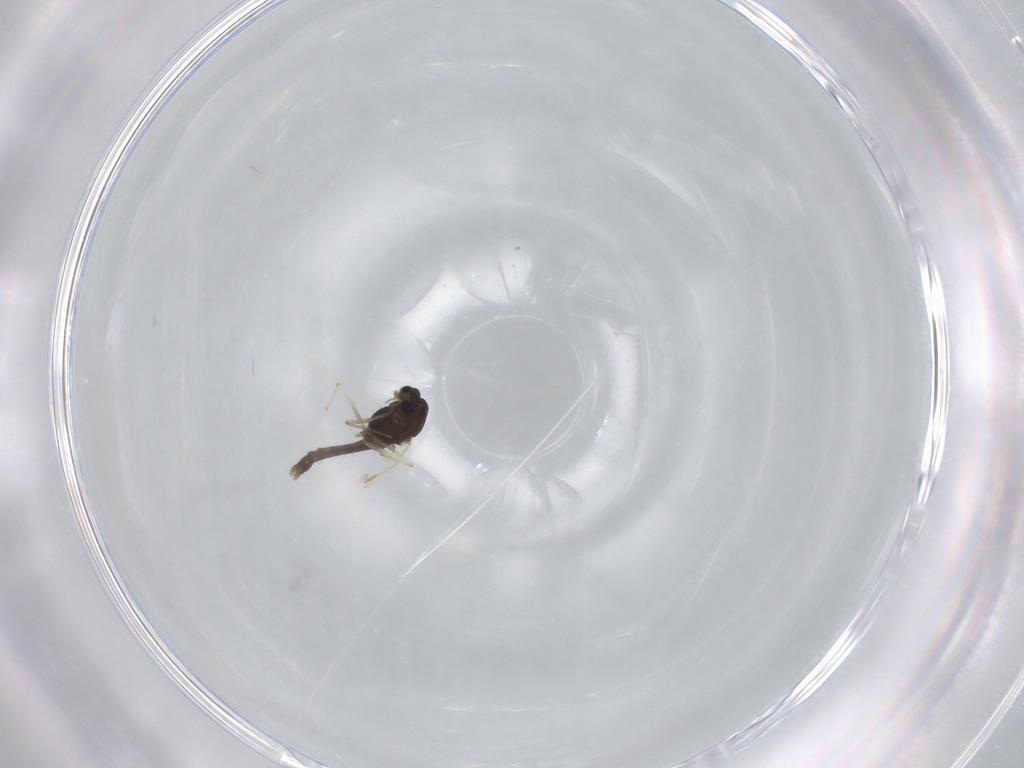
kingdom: Animalia
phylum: Arthropoda
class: Insecta
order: Diptera
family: Chironomidae
